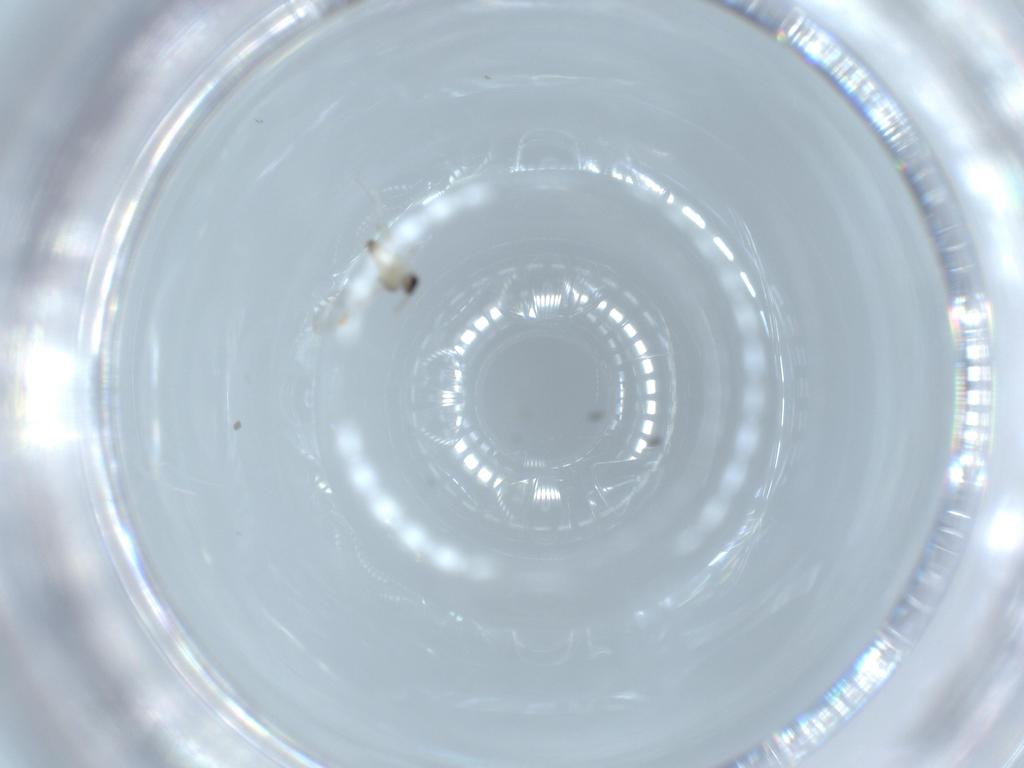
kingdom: Animalia
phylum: Arthropoda
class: Insecta
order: Diptera
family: Cecidomyiidae
